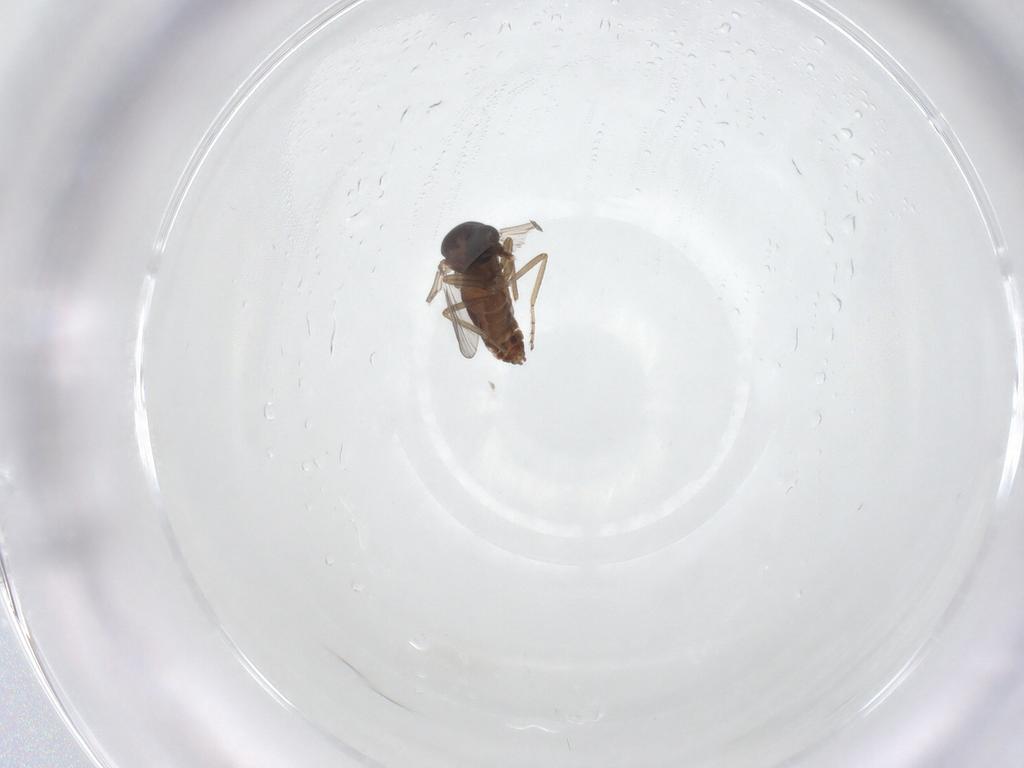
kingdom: Animalia
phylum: Arthropoda
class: Insecta
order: Diptera
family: Ceratopogonidae
